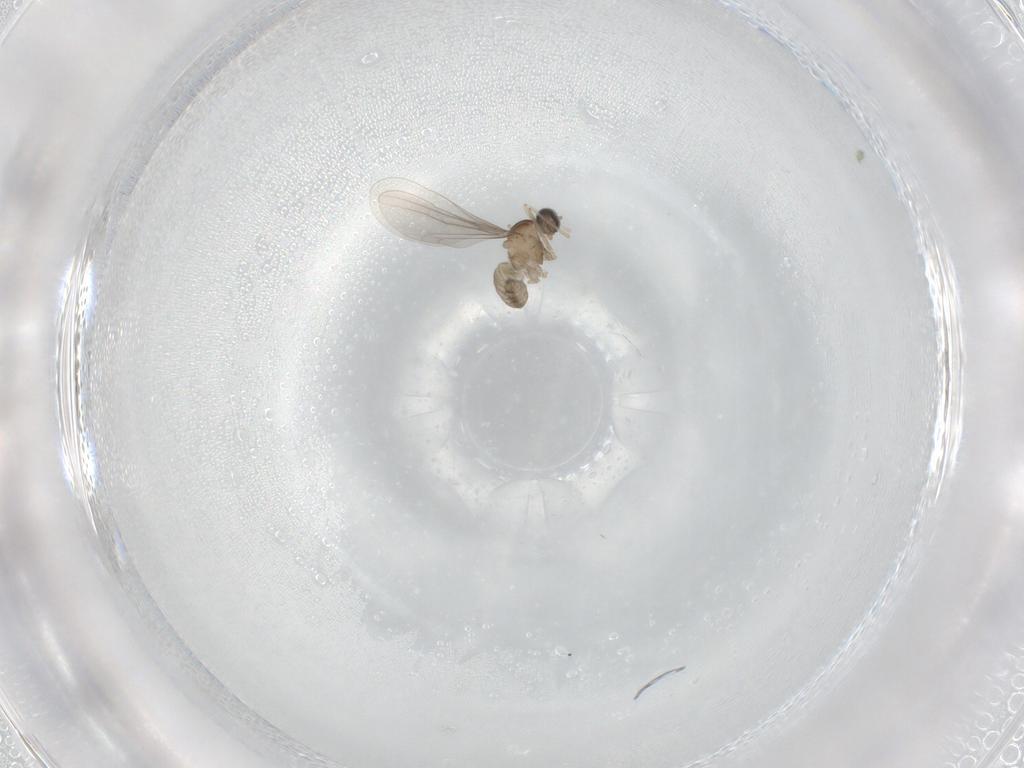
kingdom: Animalia
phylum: Arthropoda
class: Insecta
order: Diptera
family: Cecidomyiidae
